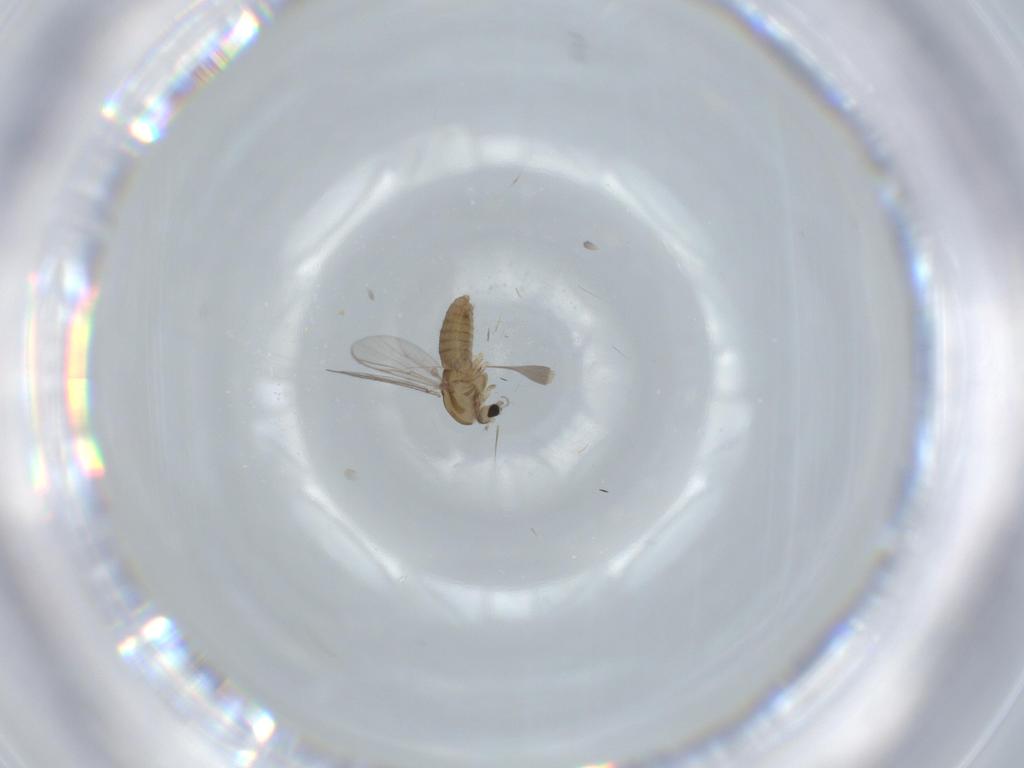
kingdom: Animalia
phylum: Arthropoda
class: Insecta
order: Diptera
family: Chironomidae
